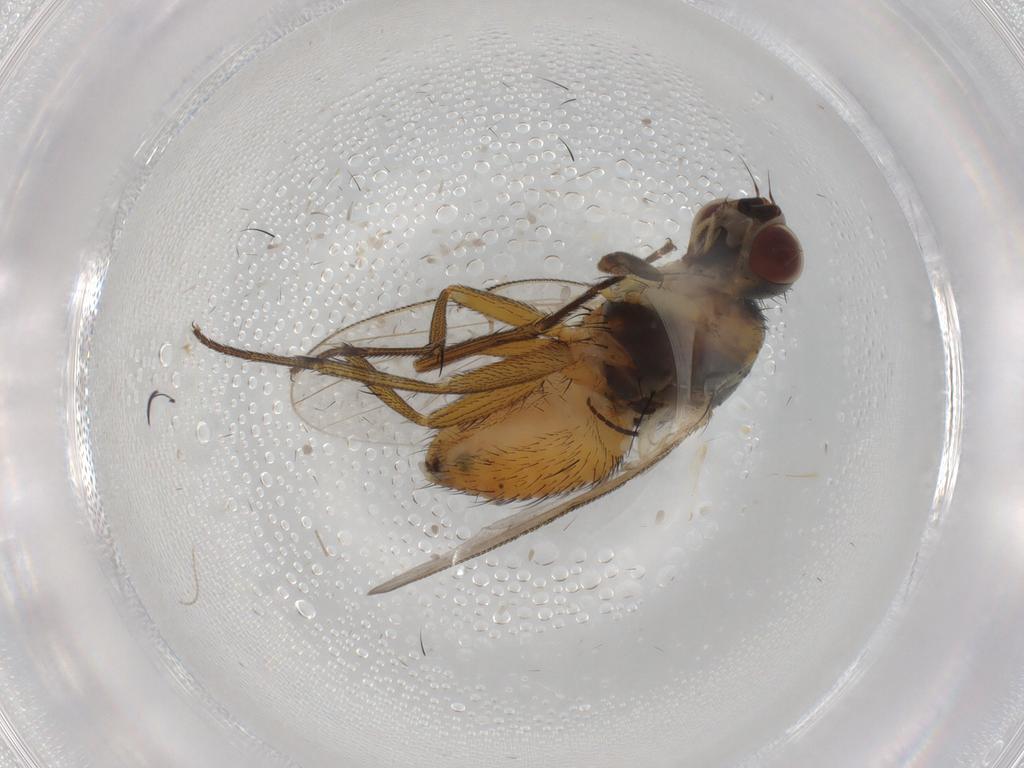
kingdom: Animalia
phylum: Arthropoda
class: Insecta
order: Diptera
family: Muscidae
